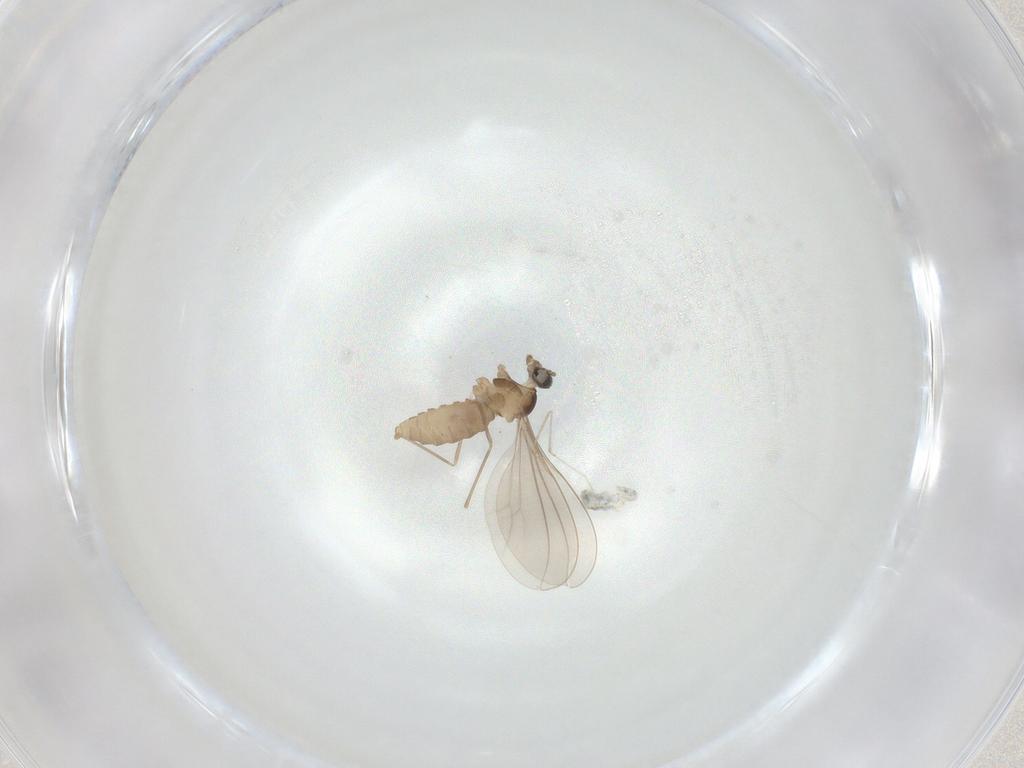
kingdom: Animalia
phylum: Arthropoda
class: Insecta
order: Diptera
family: Cecidomyiidae
